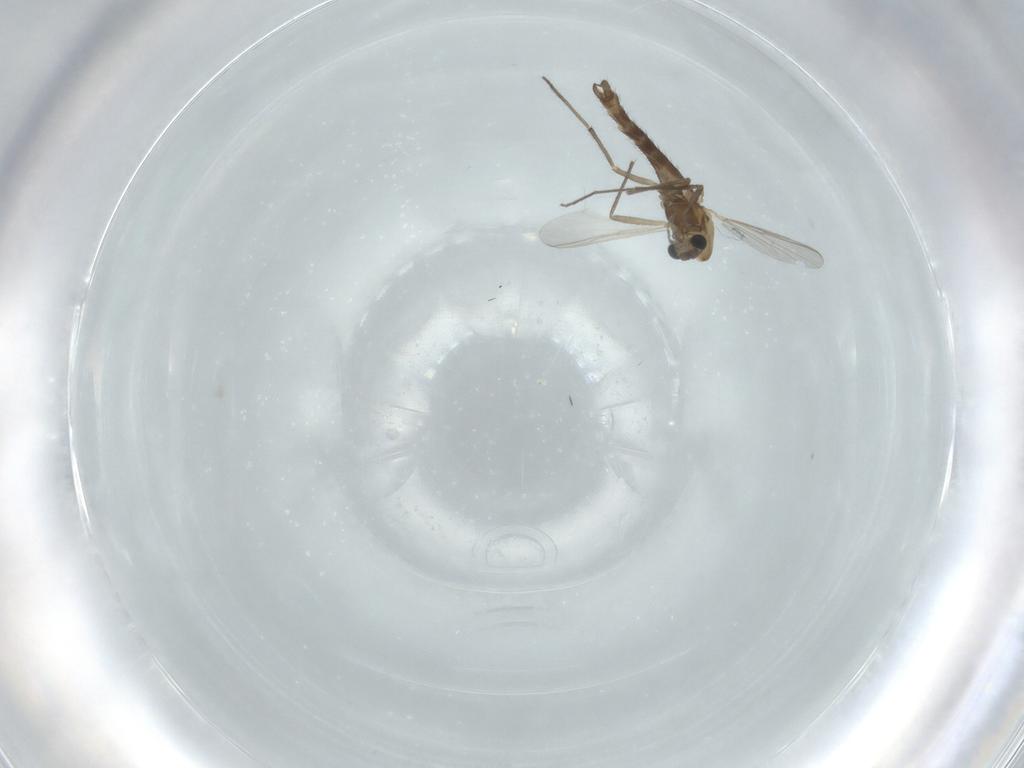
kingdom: Animalia
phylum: Arthropoda
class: Insecta
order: Diptera
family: Chironomidae
